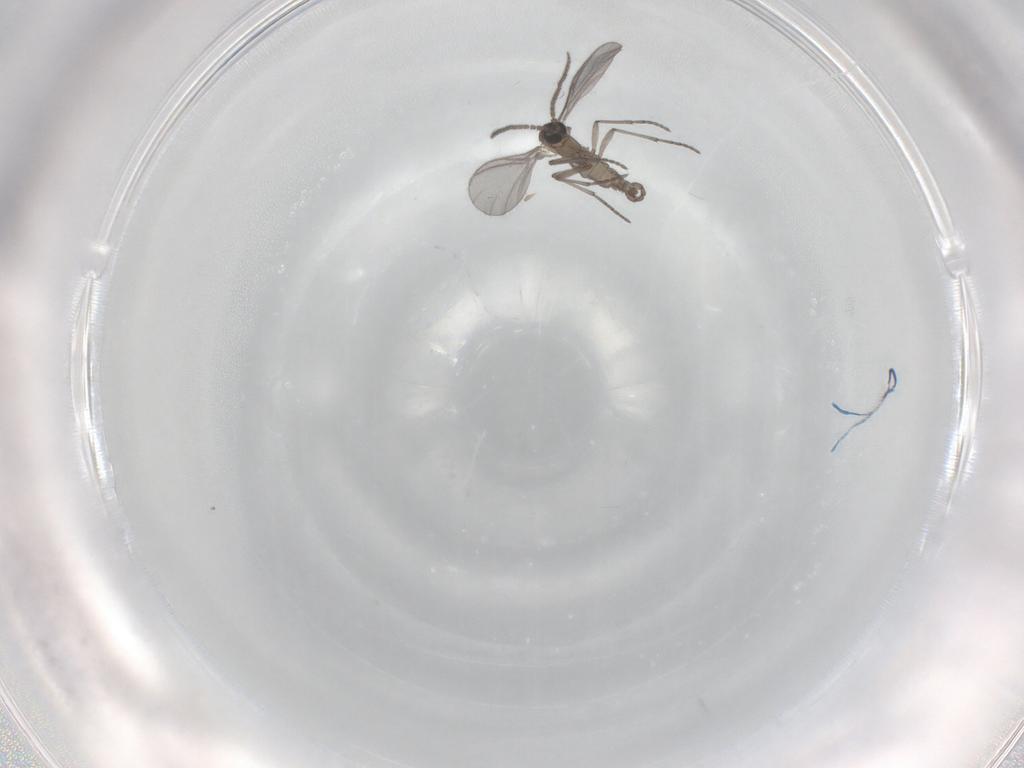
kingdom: Animalia
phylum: Arthropoda
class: Insecta
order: Diptera
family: Sciaridae
